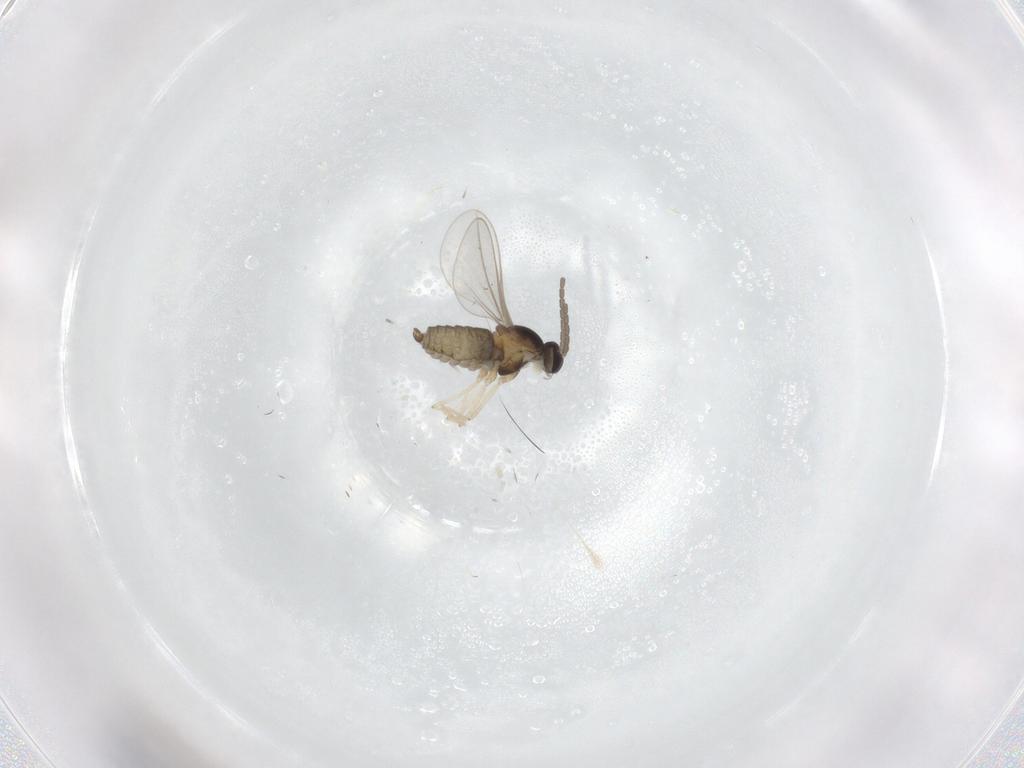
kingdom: Animalia
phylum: Arthropoda
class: Insecta
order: Diptera
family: Cecidomyiidae
